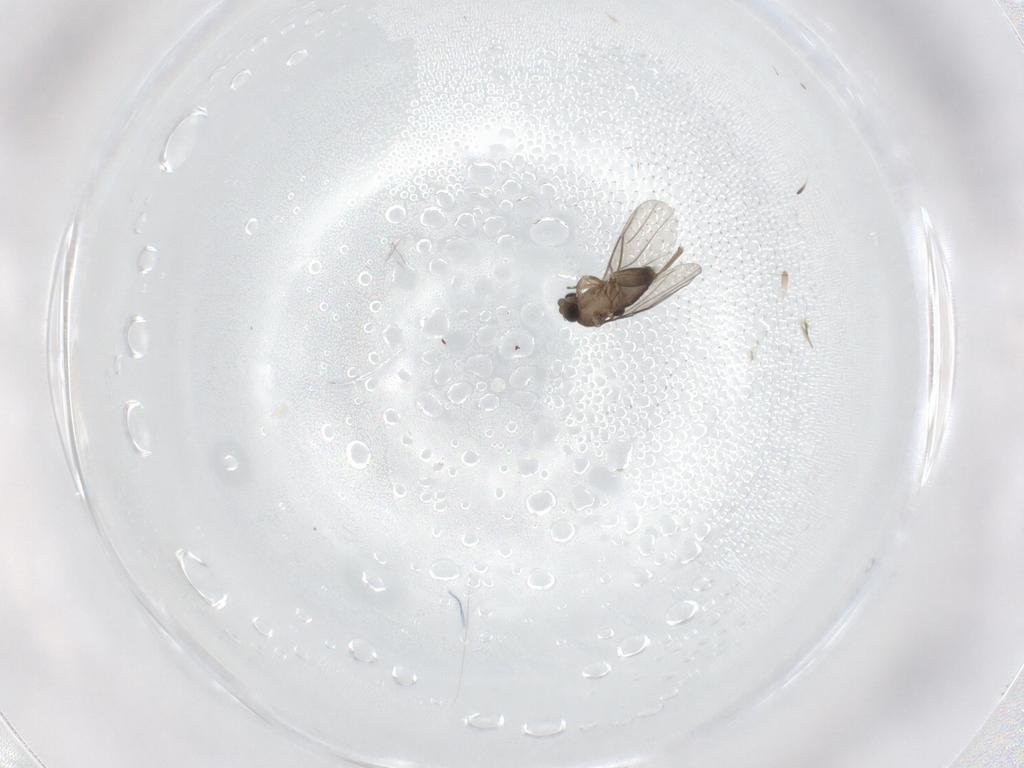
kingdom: Animalia
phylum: Arthropoda
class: Insecta
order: Diptera
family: Phoridae
